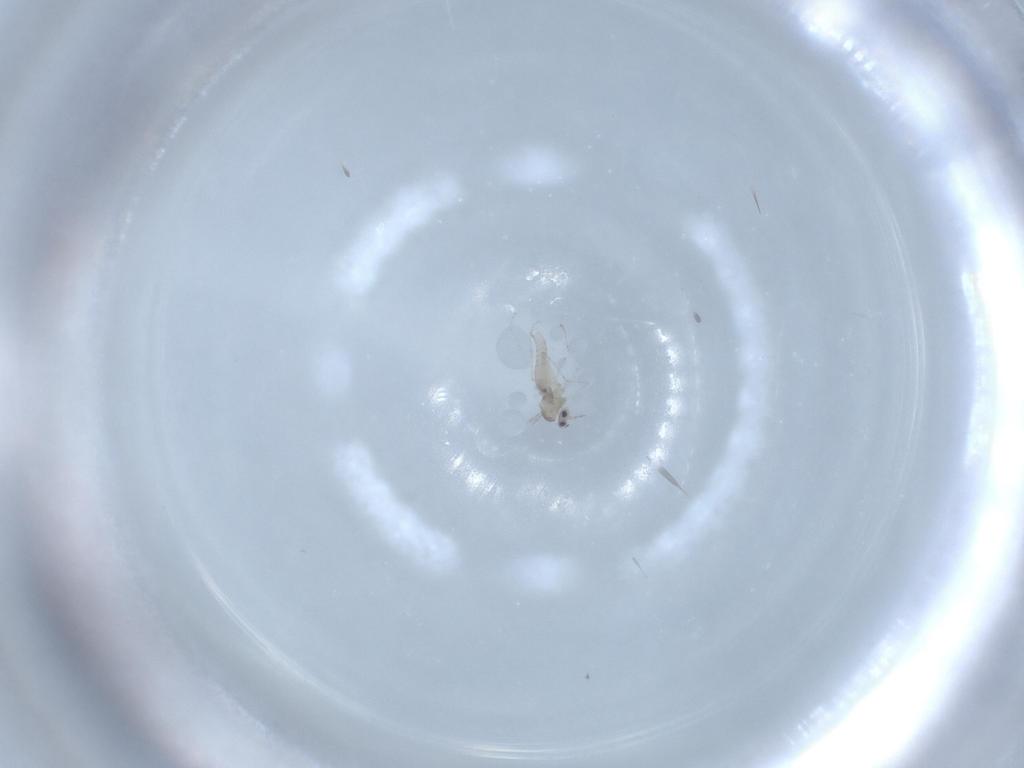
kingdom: Animalia
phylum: Arthropoda
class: Insecta
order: Diptera
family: Cecidomyiidae
